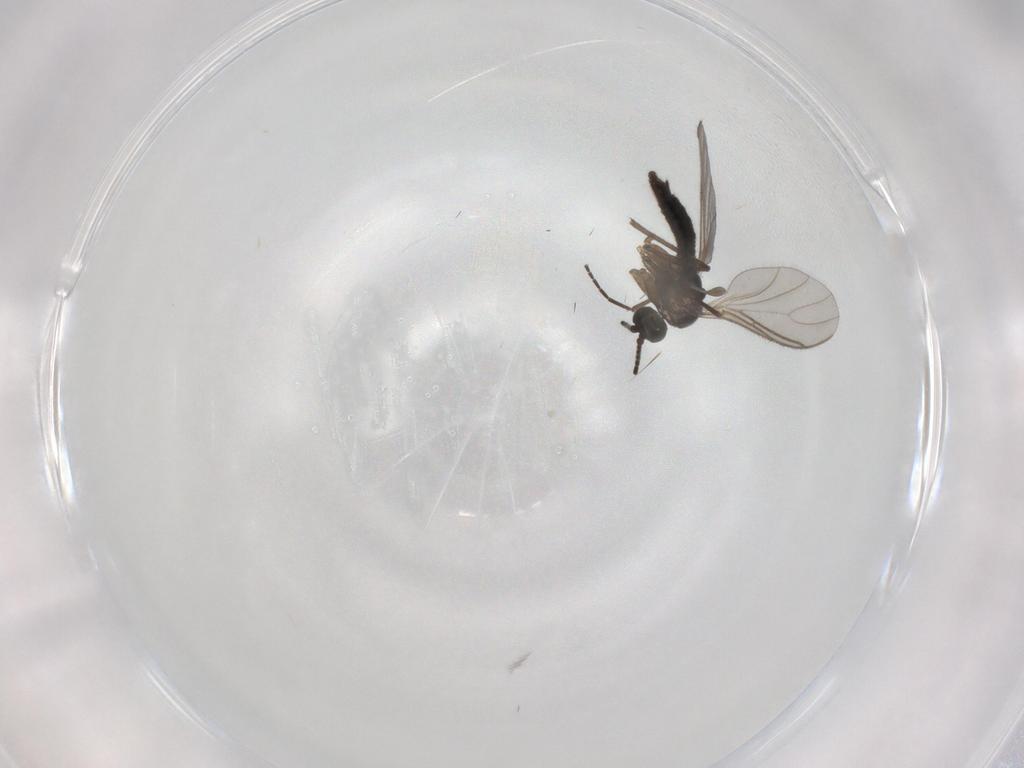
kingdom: Animalia
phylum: Arthropoda
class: Insecta
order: Diptera
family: Sciaridae
